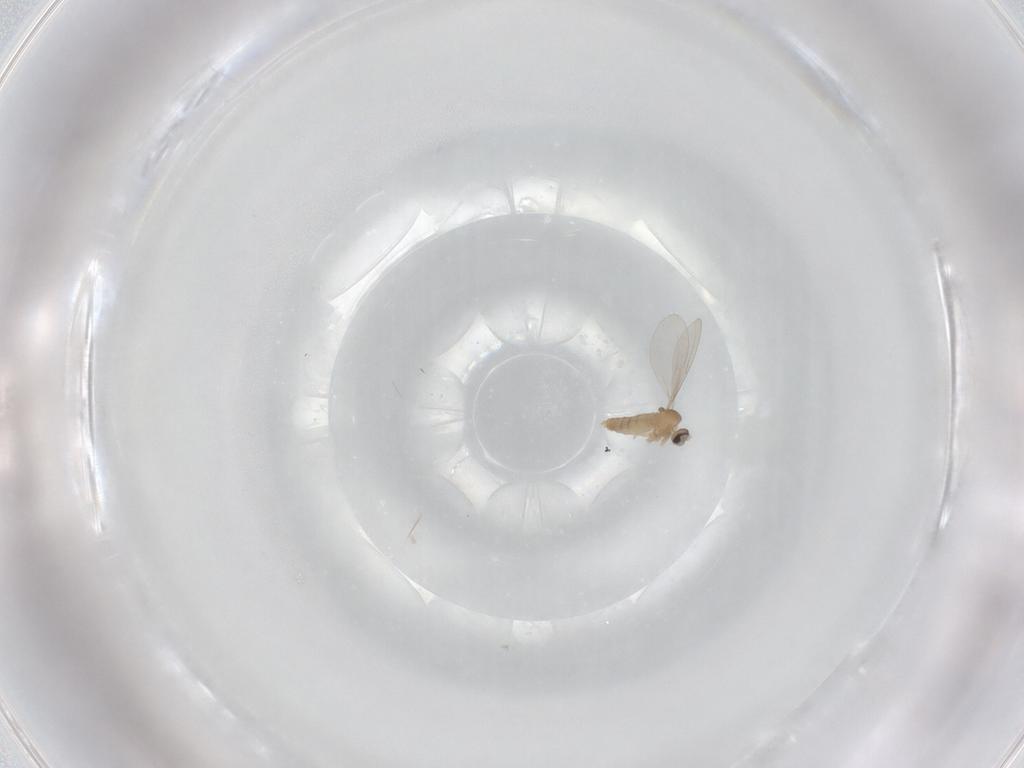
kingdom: Animalia
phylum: Arthropoda
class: Insecta
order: Diptera
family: Cecidomyiidae
